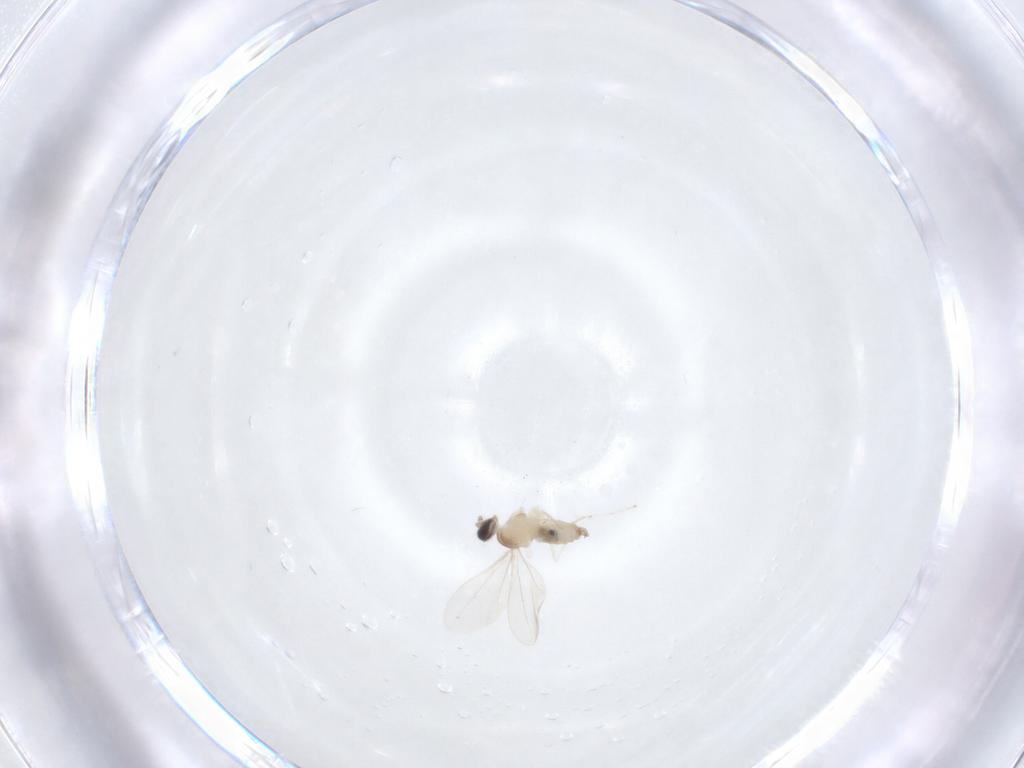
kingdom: Animalia
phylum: Arthropoda
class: Insecta
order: Diptera
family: Cecidomyiidae
